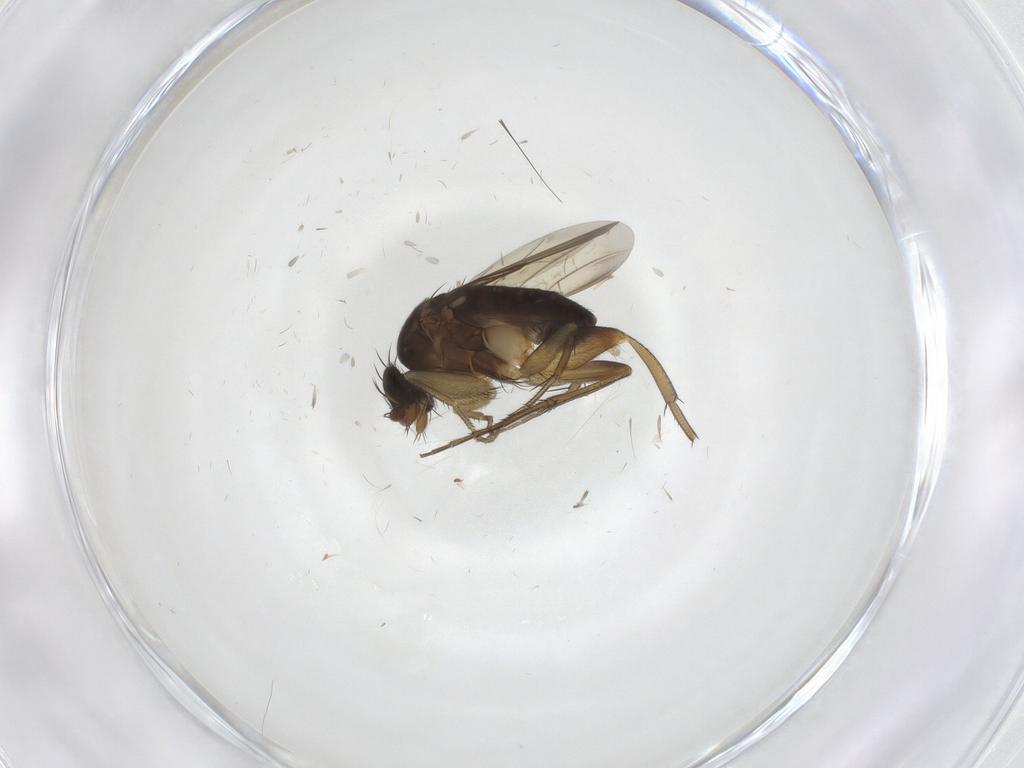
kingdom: Animalia
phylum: Arthropoda
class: Insecta
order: Diptera
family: Phoridae
